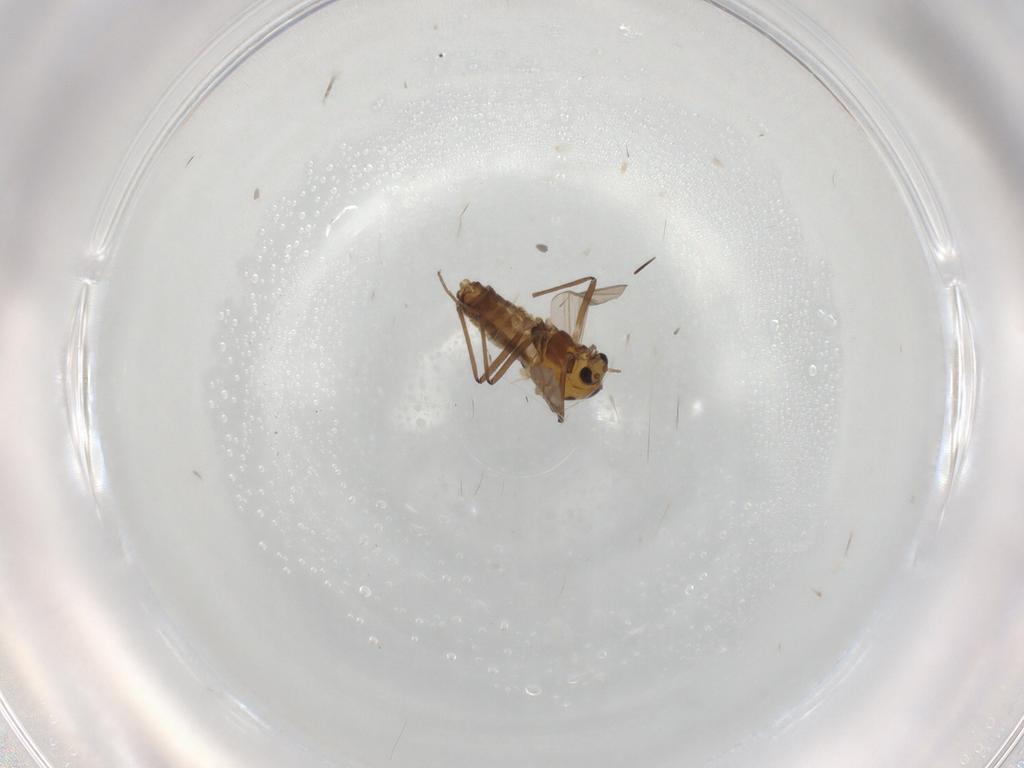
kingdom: Animalia
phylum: Arthropoda
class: Insecta
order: Diptera
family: Chironomidae
